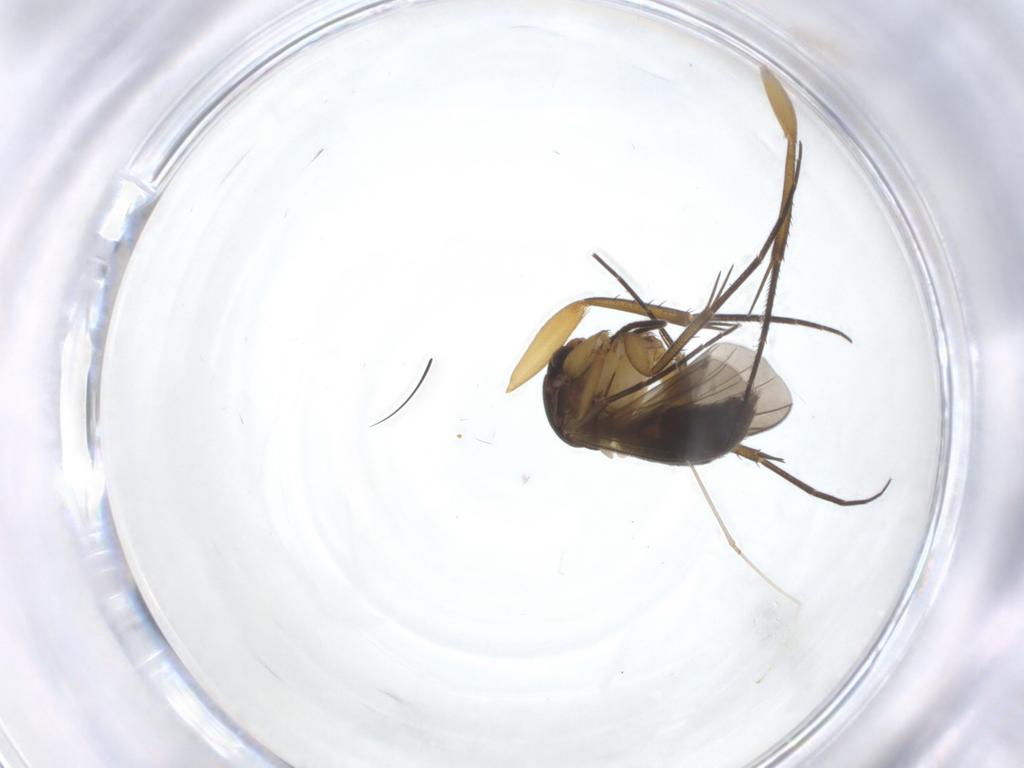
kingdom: Animalia
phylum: Arthropoda
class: Insecta
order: Diptera
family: Mycetophilidae
